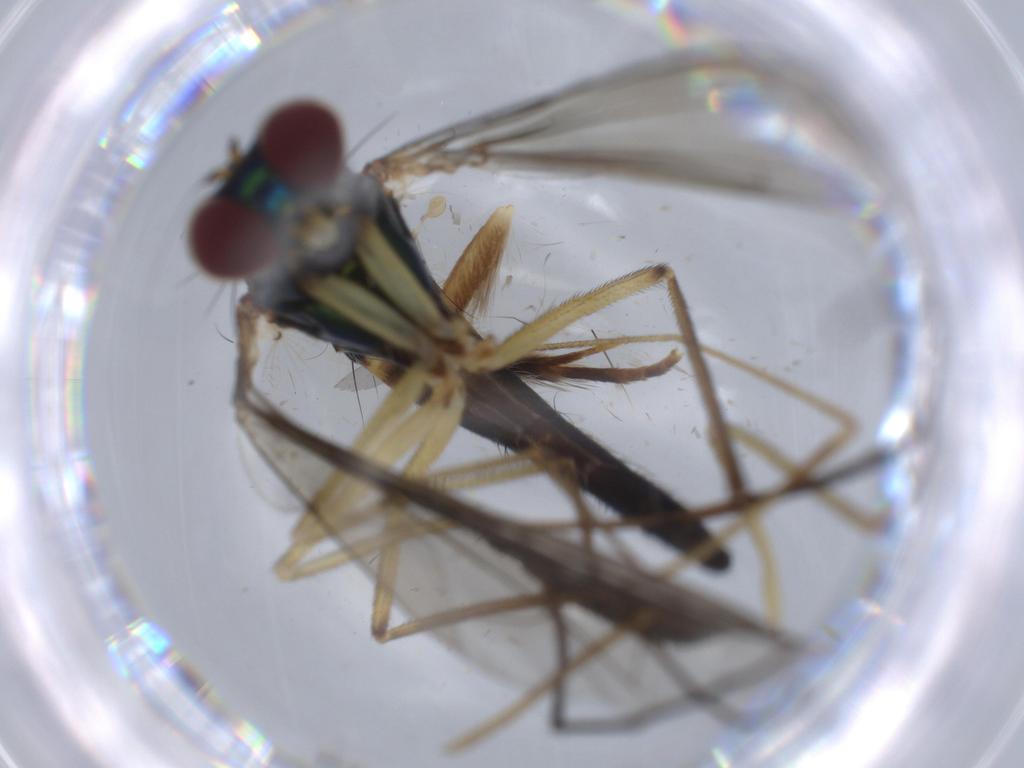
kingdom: Animalia
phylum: Arthropoda
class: Insecta
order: Diptera
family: Dolichopodidae
